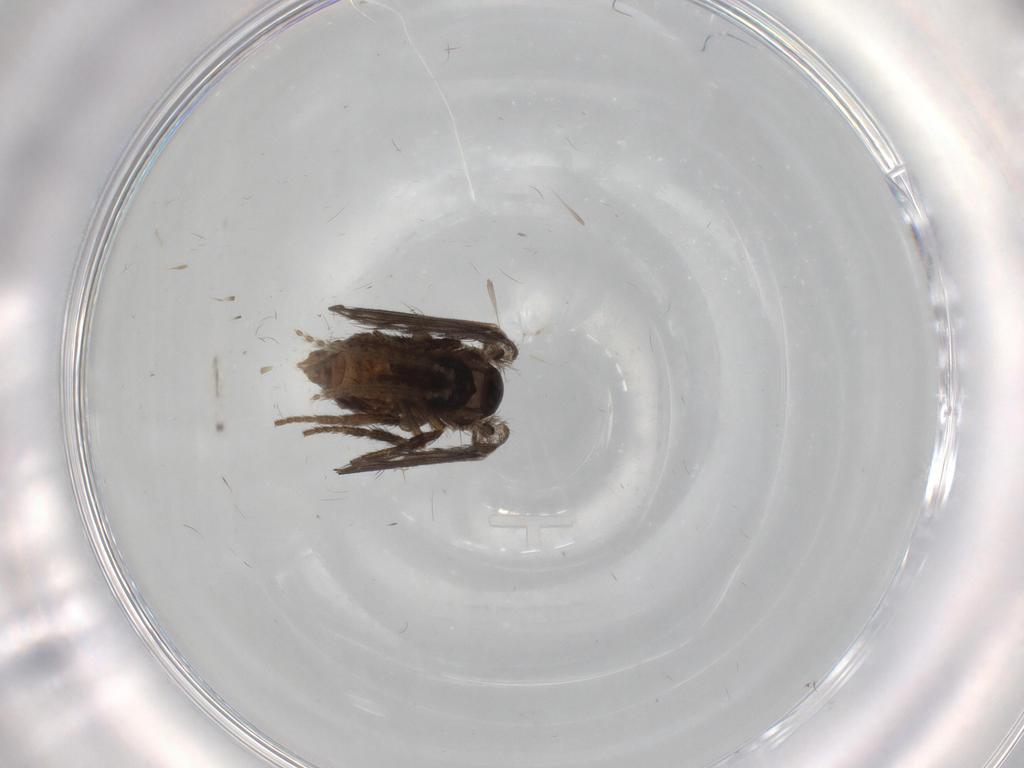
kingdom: Animalia
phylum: Arthropoda
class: Insecta
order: Diptera
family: Psychodidae
